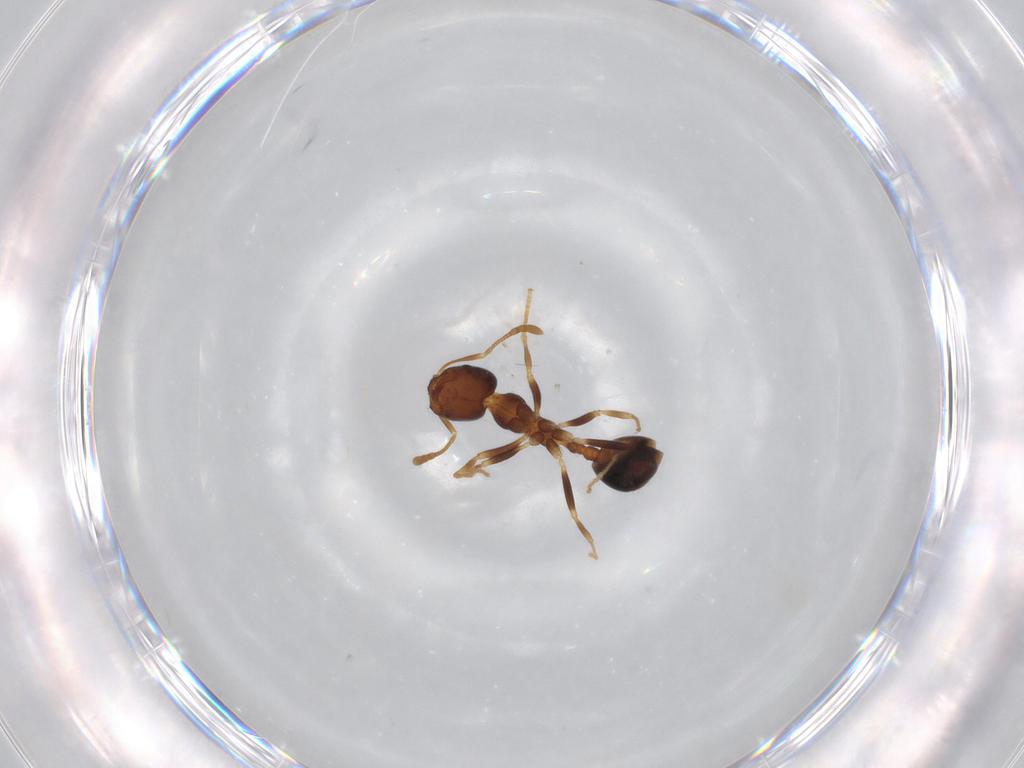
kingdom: Animalia
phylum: Arthropoda
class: Insecta
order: Hymenoptera
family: Formicidae
